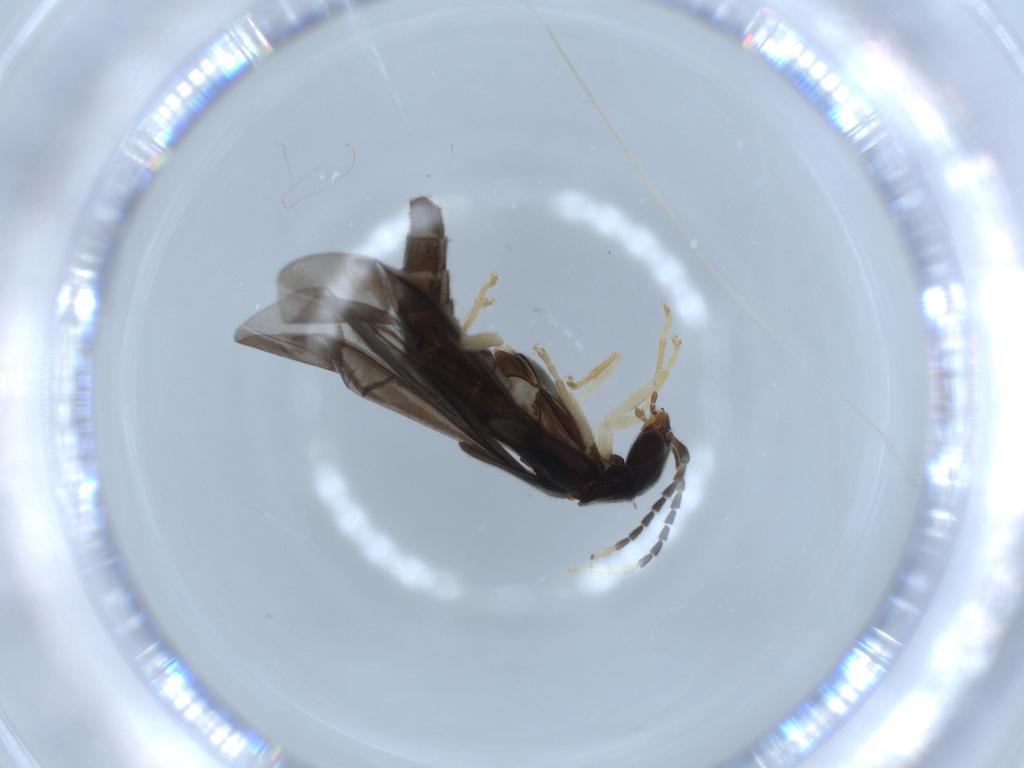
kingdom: Animalia
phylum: Arthropoda
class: Insecta
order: Coleoptera
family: Cantharidae
